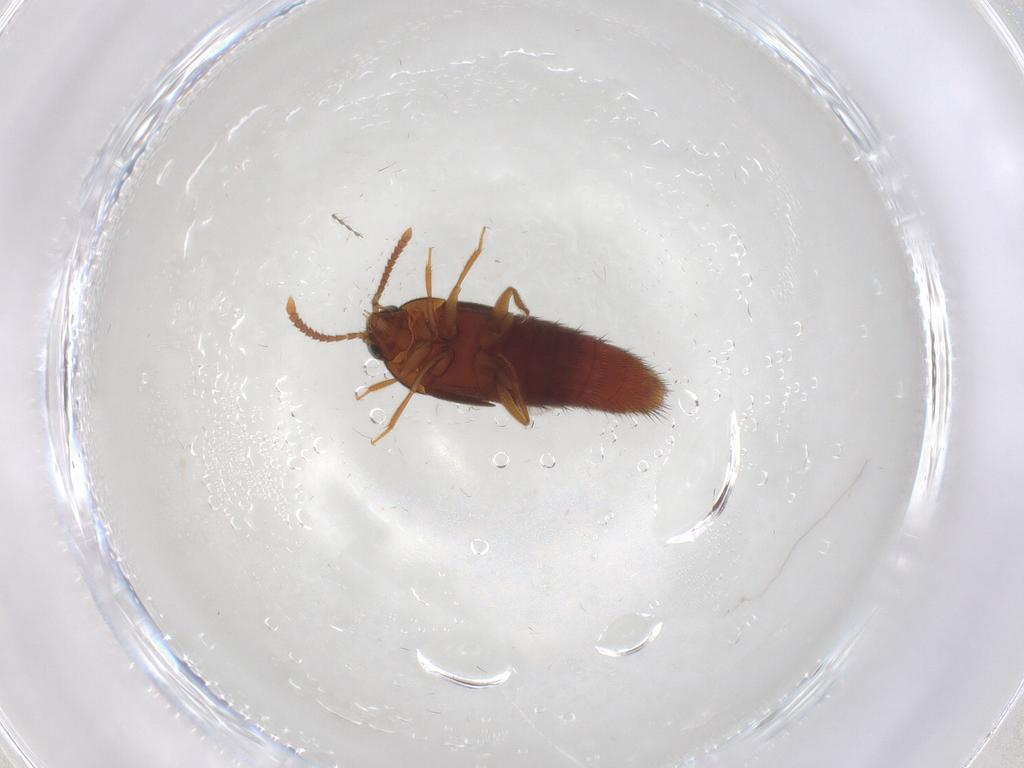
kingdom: Animalia
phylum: Arthropoda
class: Insecta
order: Coleoptera
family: Staphylinidae
